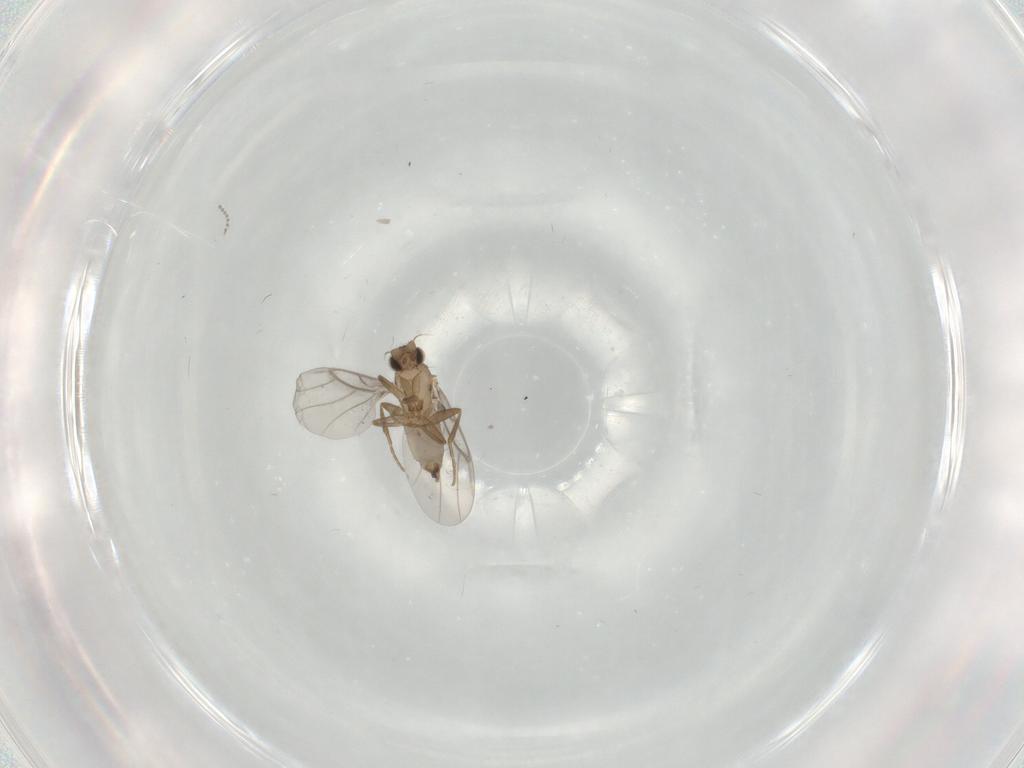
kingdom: Animalia
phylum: Arthropoda
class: Insecta
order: Diptera
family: Psychodidae
